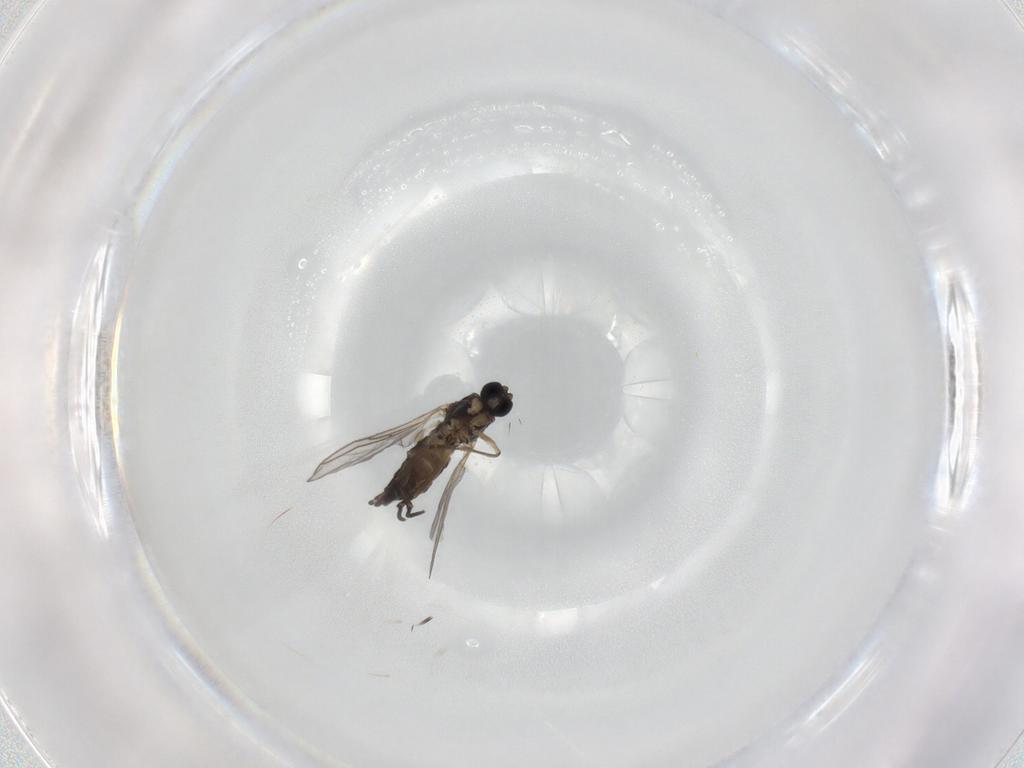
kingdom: Animalia
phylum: Arthropoda
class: Insecta
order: Diptera
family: Sciaridae
